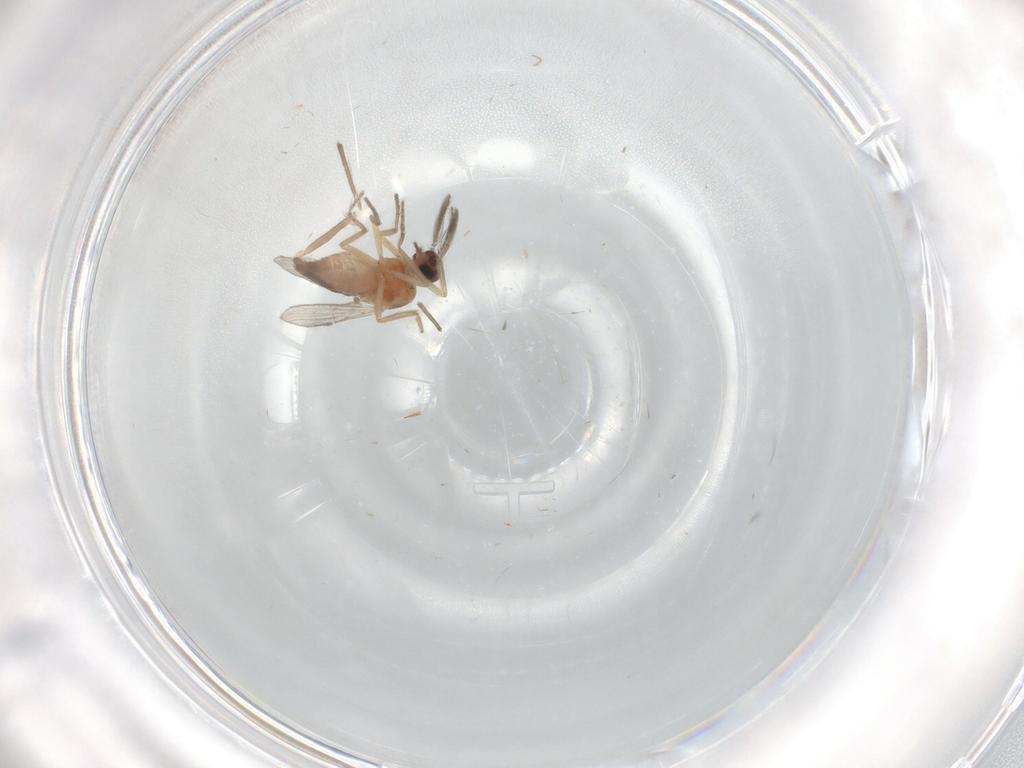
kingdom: Animalia
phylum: Arthropoda
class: Insecta
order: Diptera
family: Ceratopogonidae
